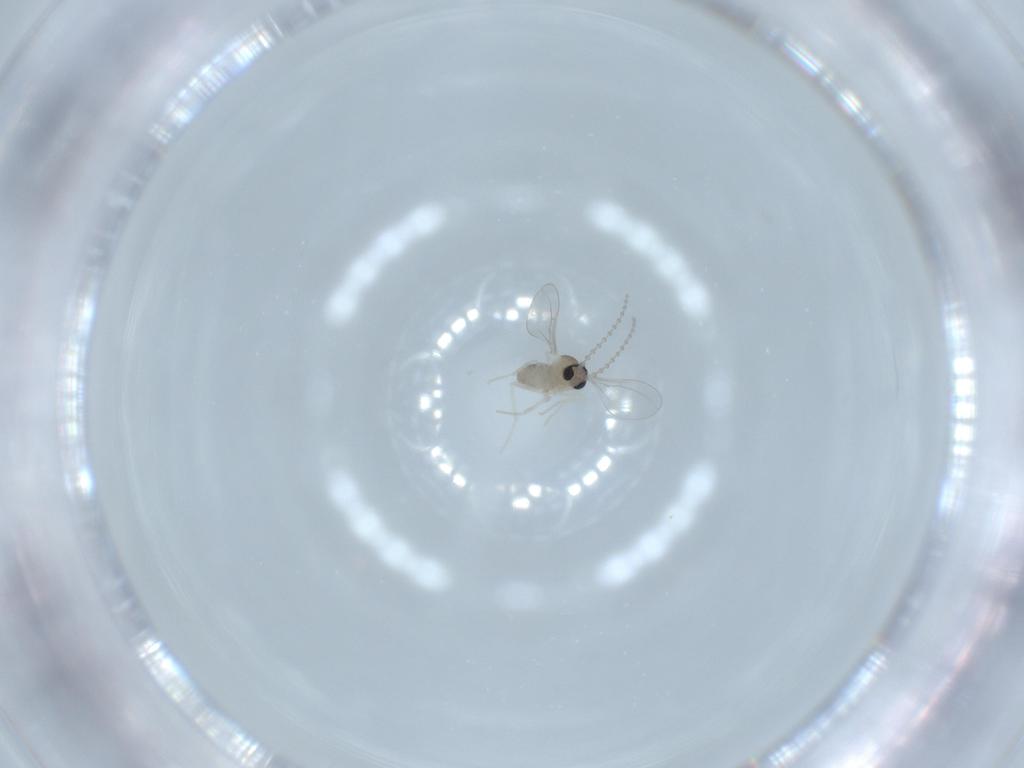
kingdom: Animalia
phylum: Arthropoda
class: Insecta
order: Diptera
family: Cecidomyiidae
